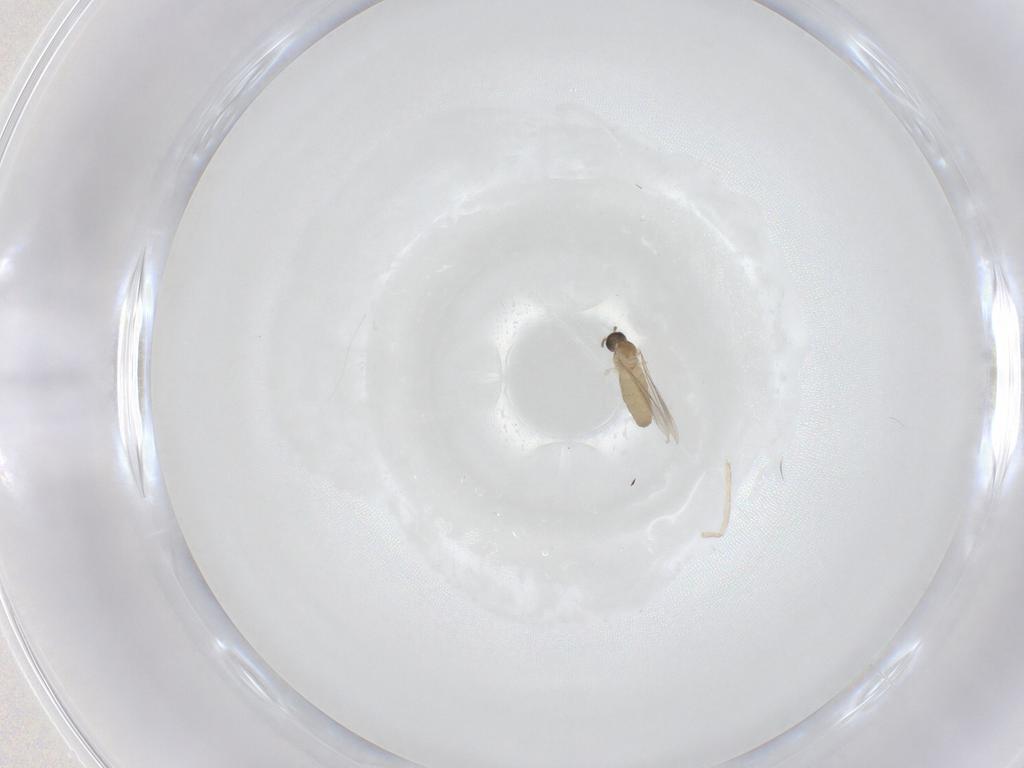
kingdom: Animalia
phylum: Arthropoda
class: Insecta
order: Diptera
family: Cecidomyiidae
